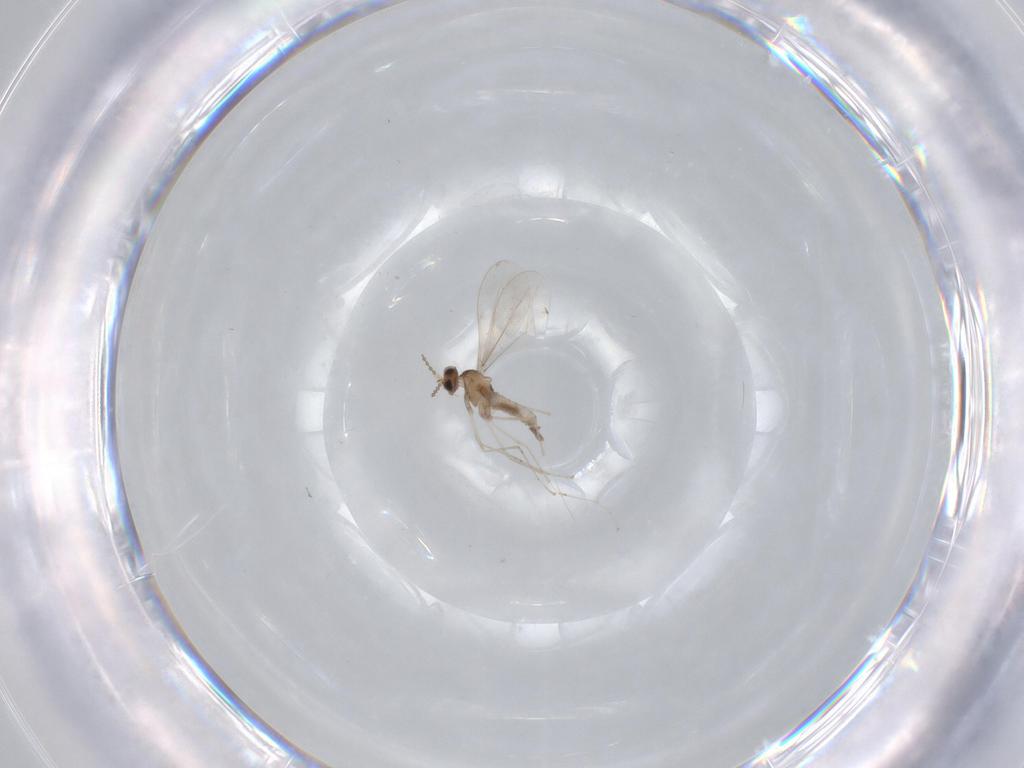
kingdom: Animalia
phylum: Arthropoda
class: Insecta
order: Diptera
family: Cecidomyiidae
